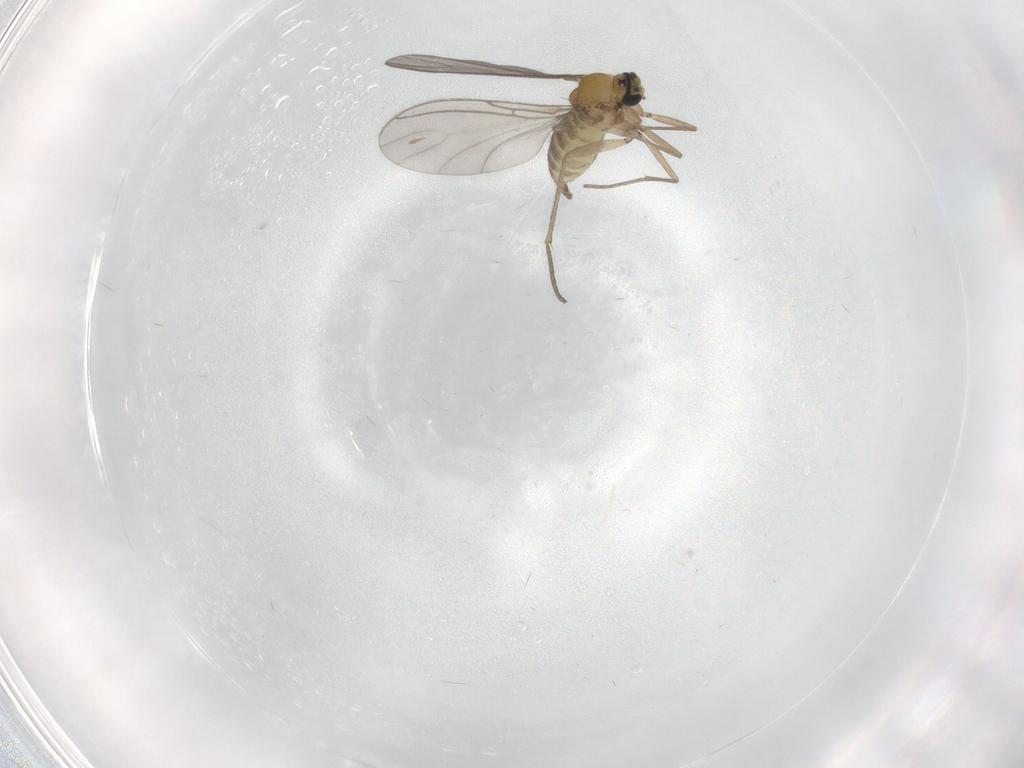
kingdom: Animalia
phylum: Arthropoda
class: Insecta
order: Diptera
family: Sciaridae
